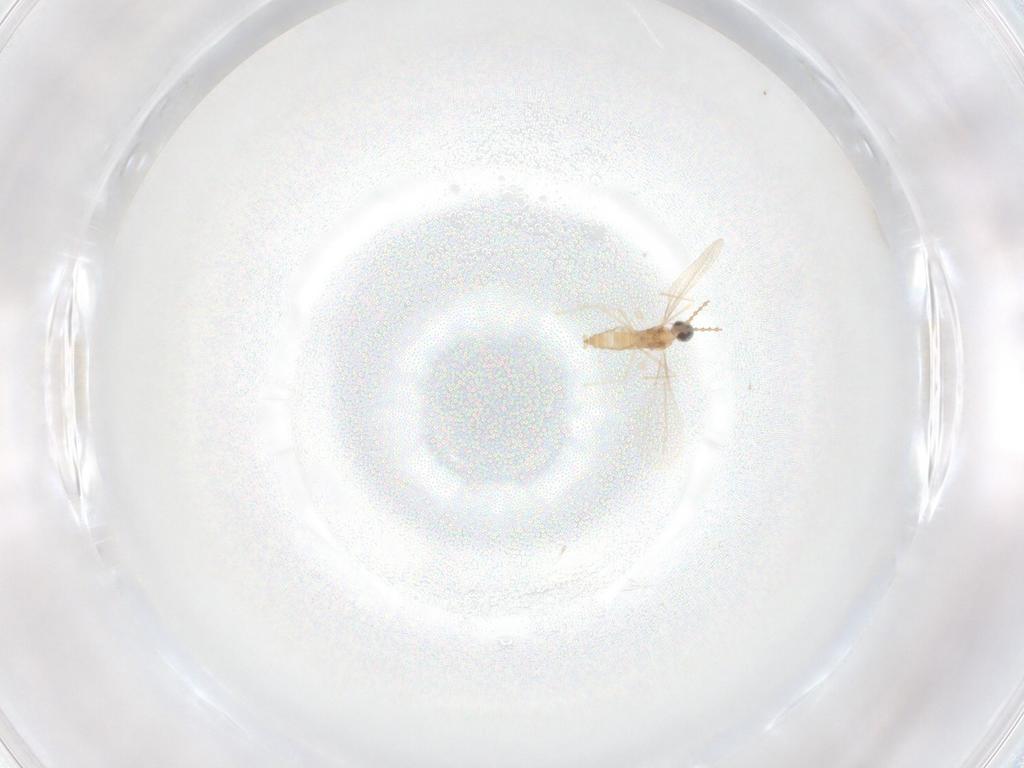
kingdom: Animalia
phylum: Arthropoda
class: Insecta
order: Diptera
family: Cecidomyiidae
